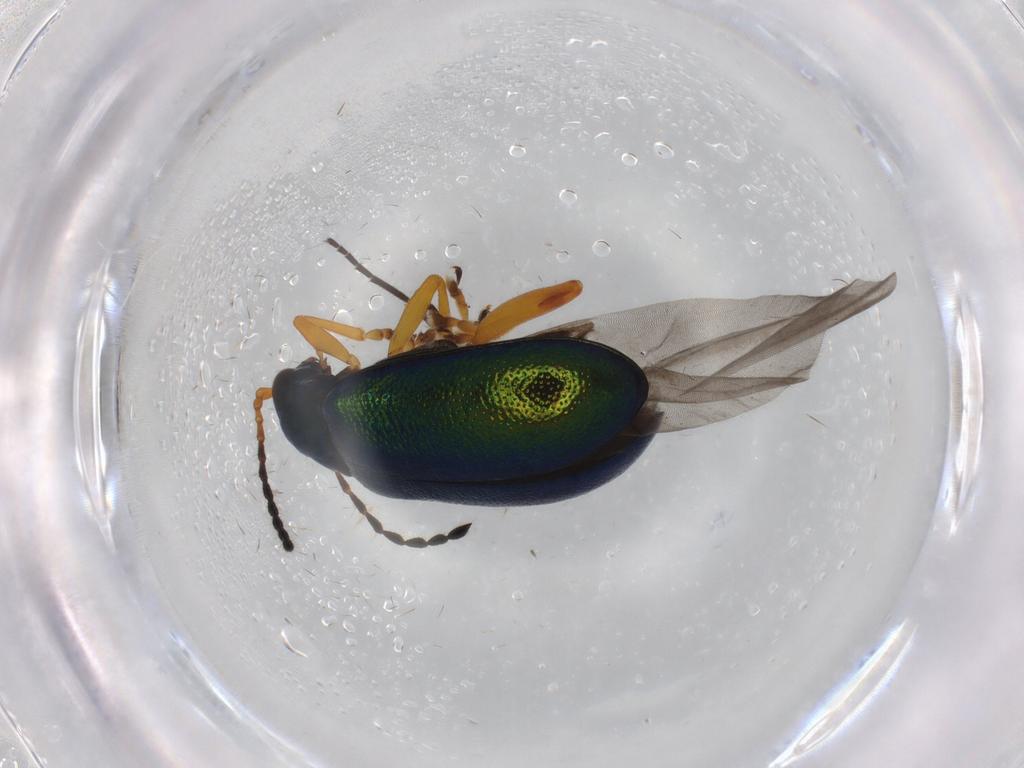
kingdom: Animalia
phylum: Arthropoda
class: Insecta
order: Coleoptera
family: Chrysomelidae
